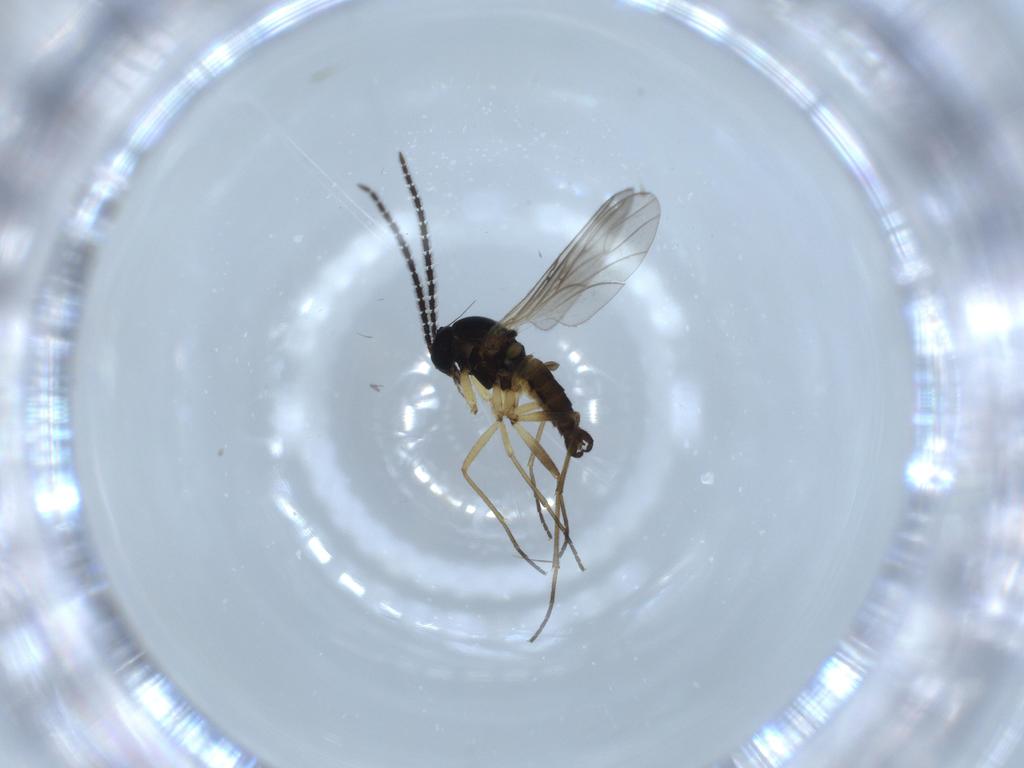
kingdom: Animalia
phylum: Arthropoda
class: Insecta
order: Diptera
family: Sciaridae
